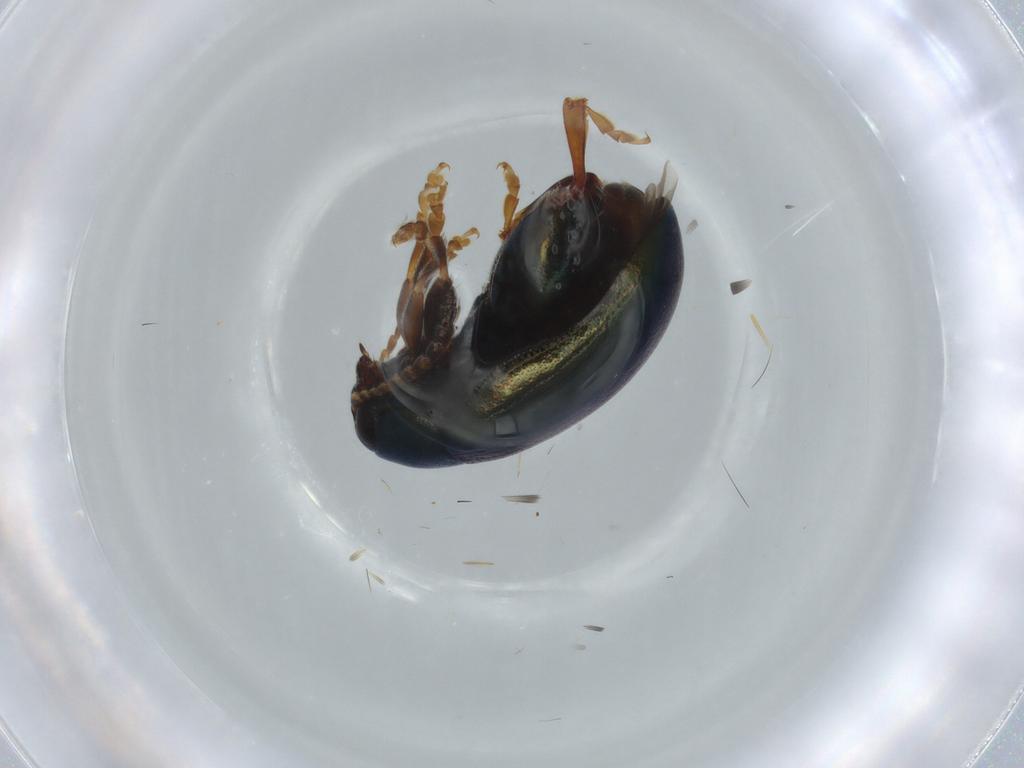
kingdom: Animalia
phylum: Arthropoda
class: Insecta
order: Coleoptera
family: Chrysomelidae
